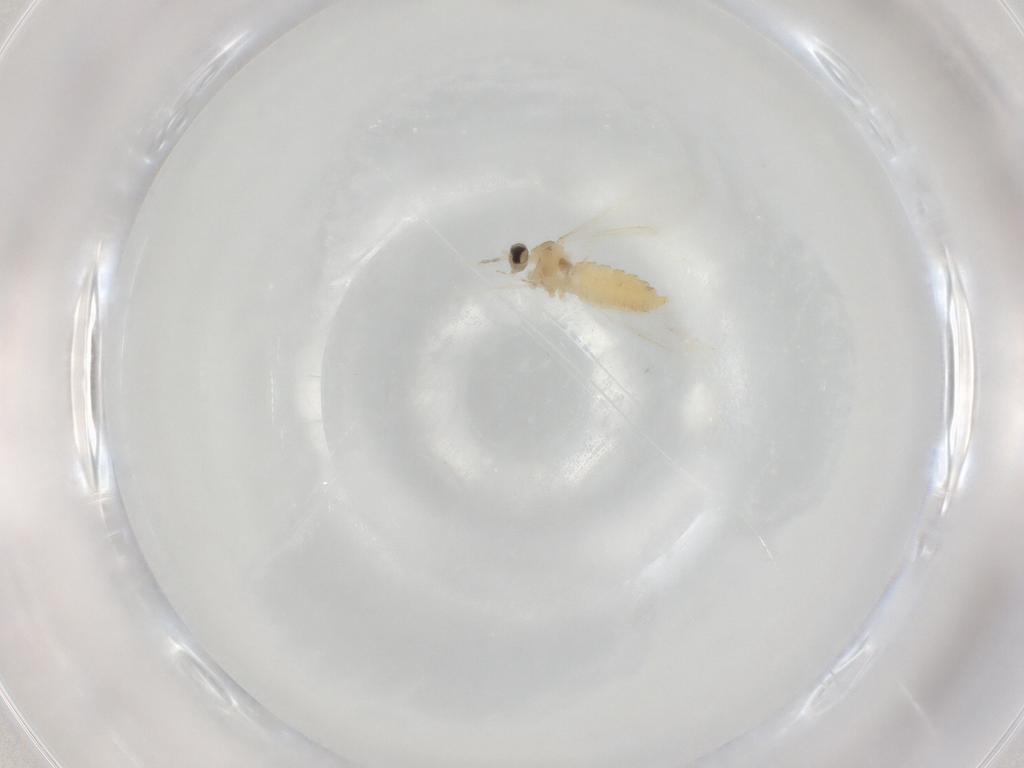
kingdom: Animalia
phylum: Arthropoda
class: Insecta
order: Diptera
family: Cecidomyiidae
